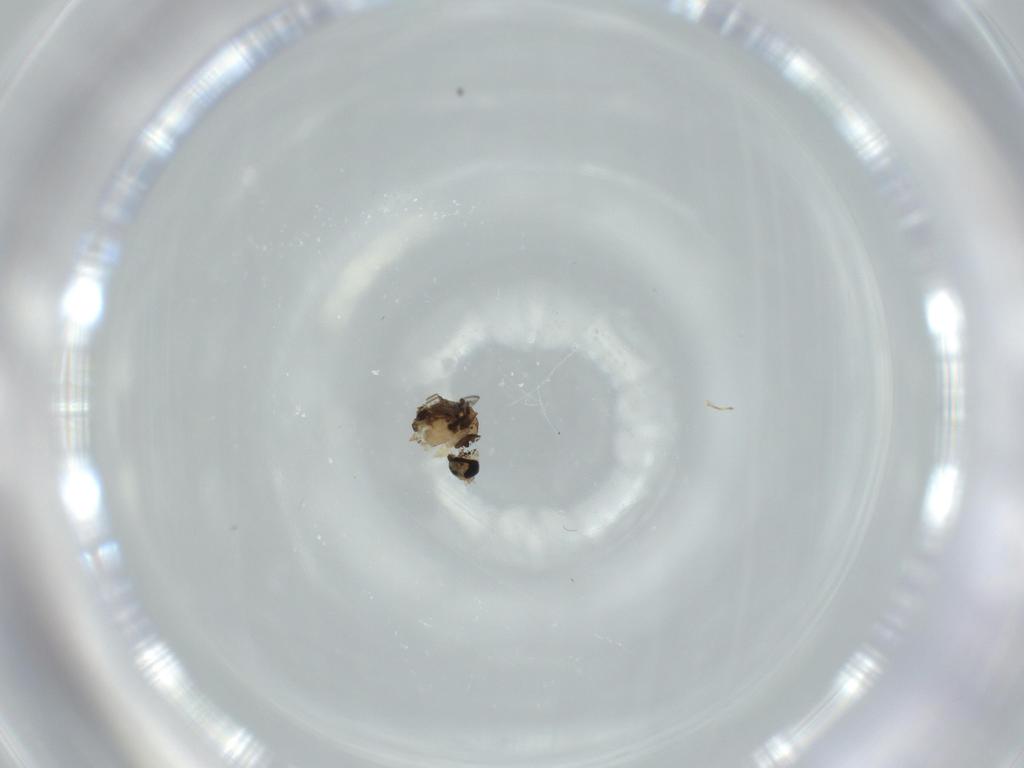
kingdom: Animalia
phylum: Arthropoda
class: Insecta
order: Diptera
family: Sciaridae
